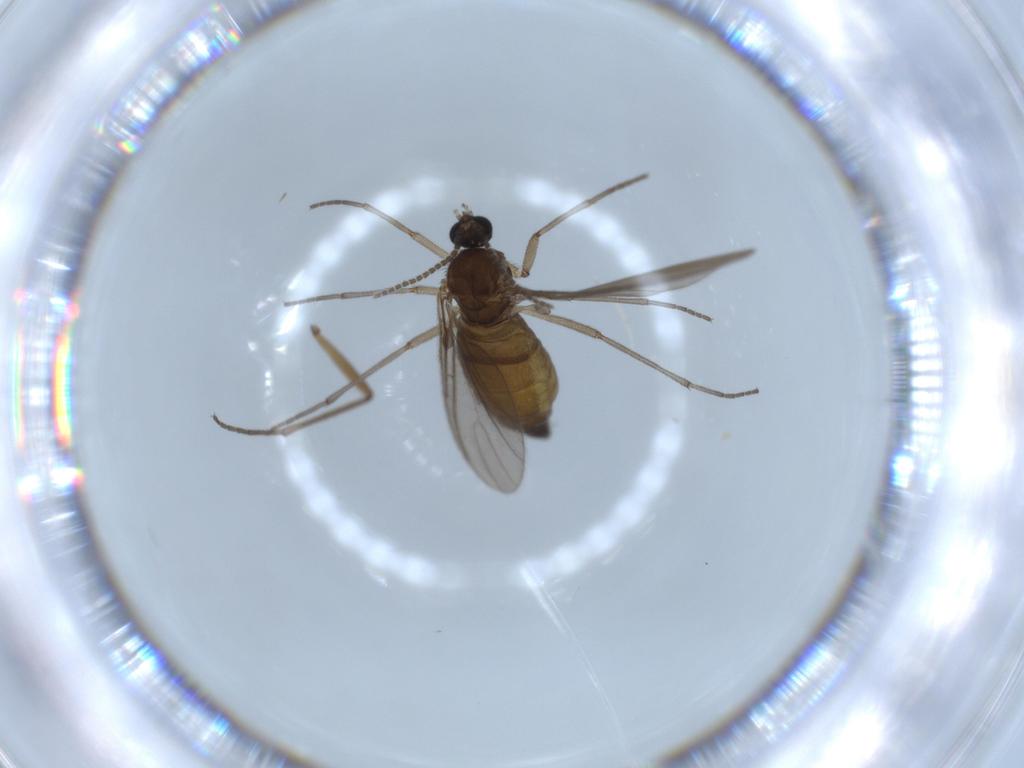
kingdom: Animalia
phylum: Arthropoda
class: Insecta
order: Diptera
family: Sciaridae
